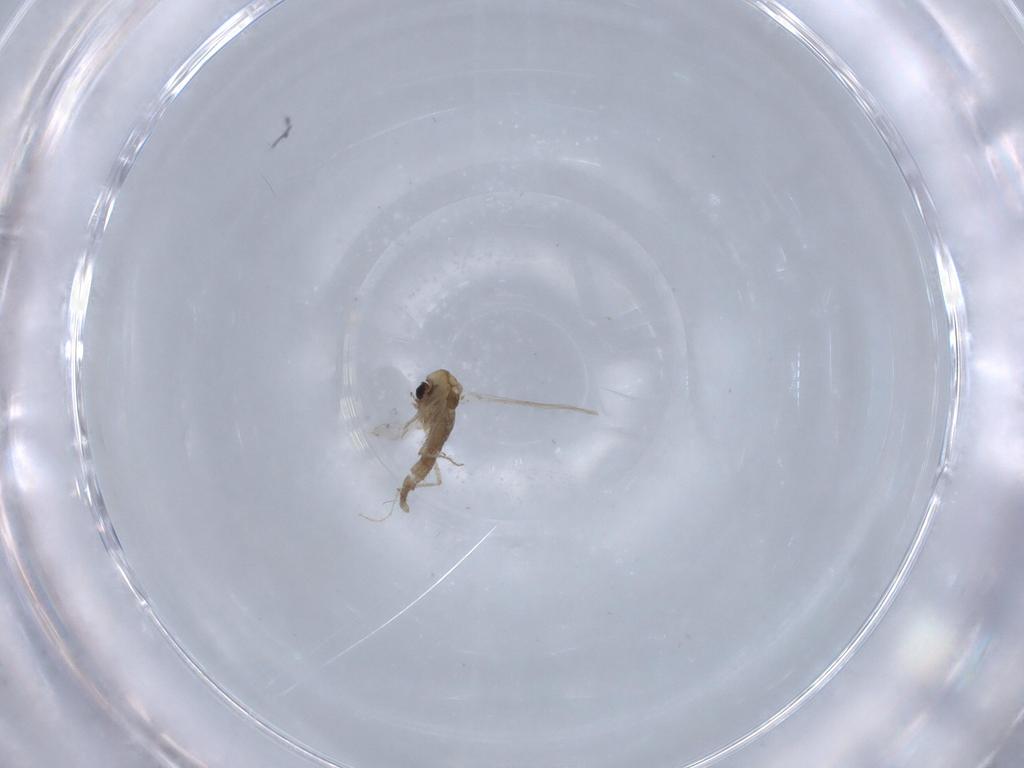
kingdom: Animalia
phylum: Arthropoda
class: Insecta
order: Diptera
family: Chironomidae
